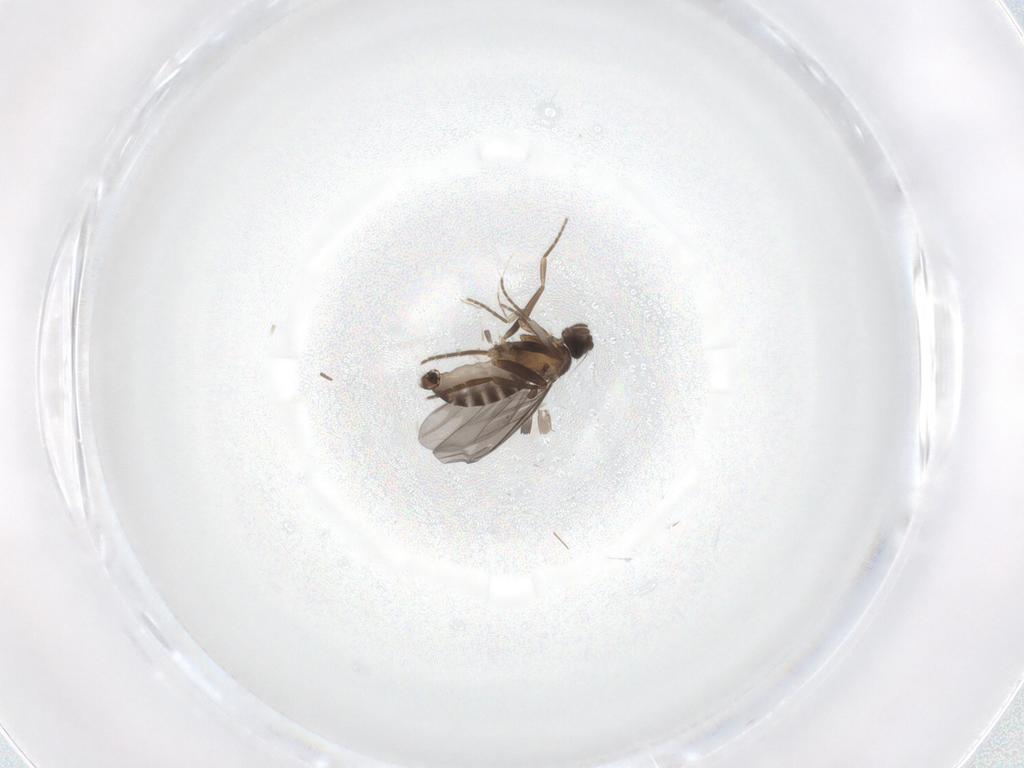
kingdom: Animalia
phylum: Arthropoda
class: Insecta
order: Diptera
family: Phoridae
